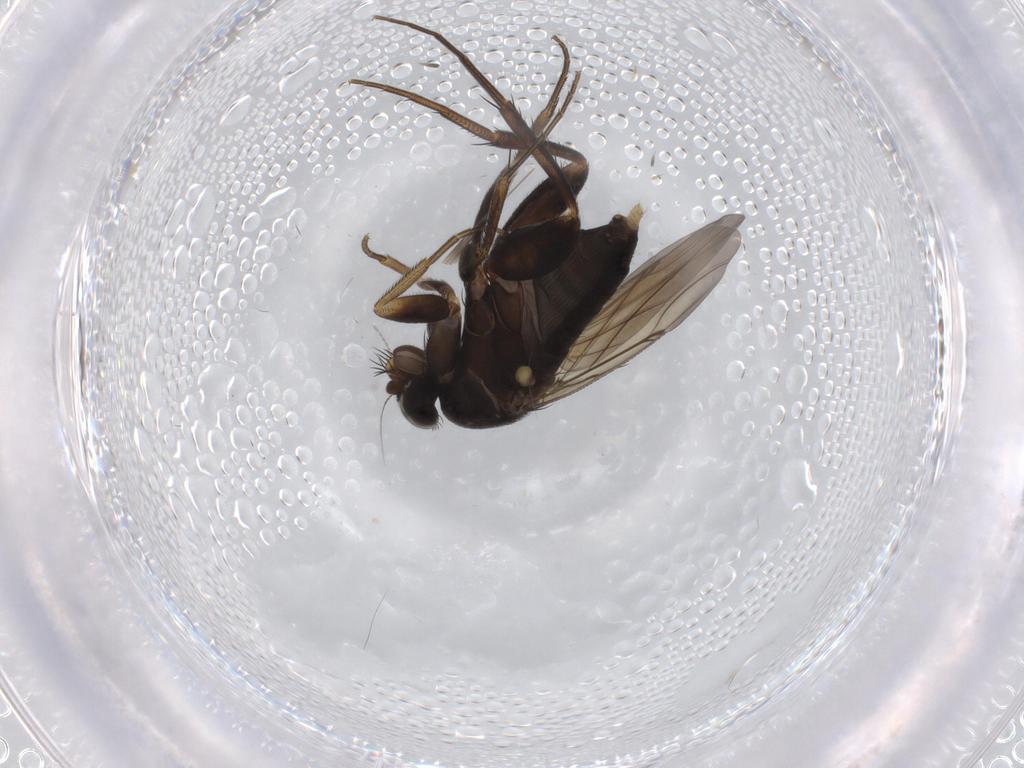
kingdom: Animalia
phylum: Arthropoda
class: Insecta
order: Diptera
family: Phoridae
